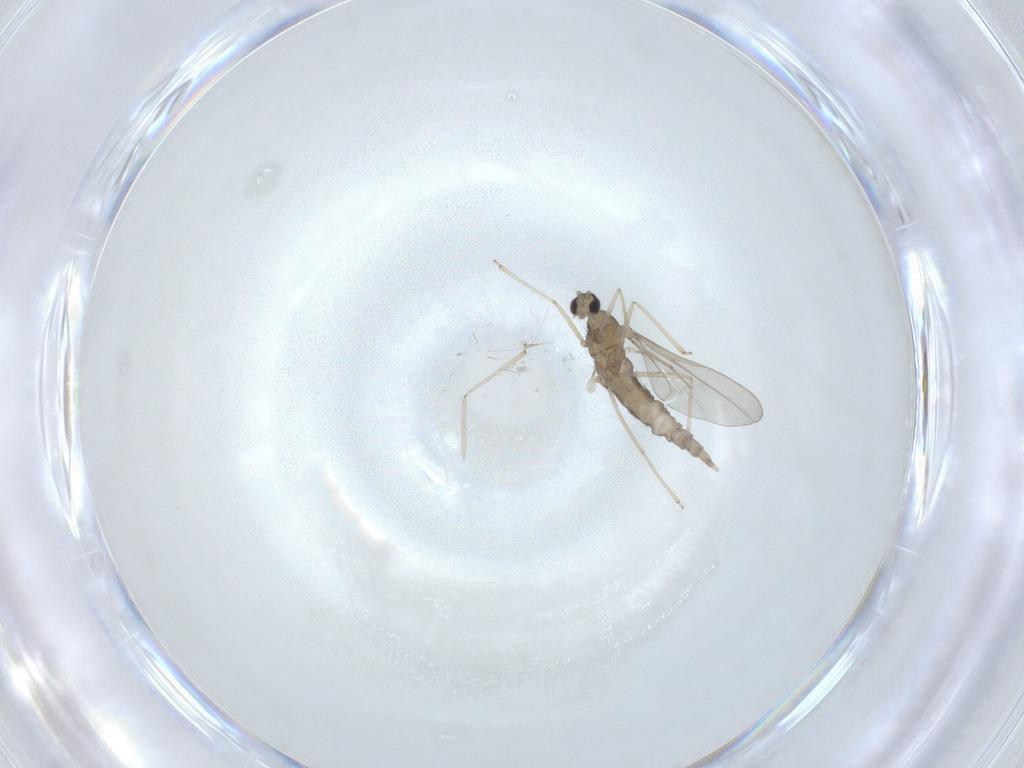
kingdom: Animalia
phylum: Arthropoda
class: Insecta
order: Diptera
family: Cecidomyiidae
